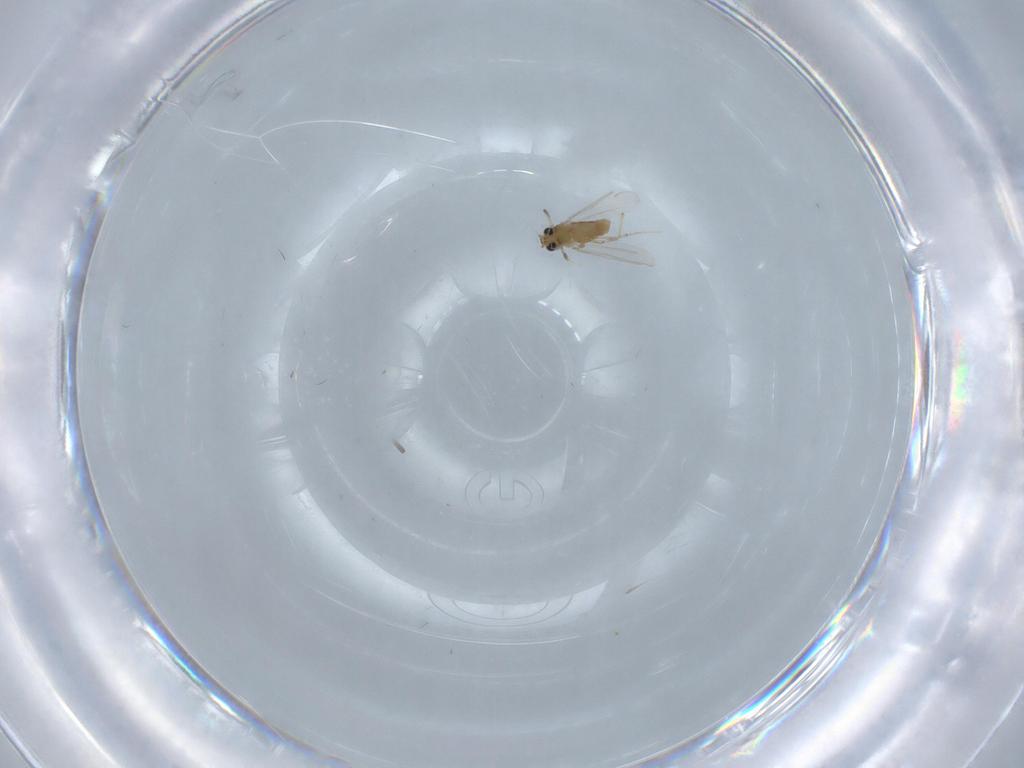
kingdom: Animalia
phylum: Arthropoda
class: Insecta
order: Diptera
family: Chironomidae
